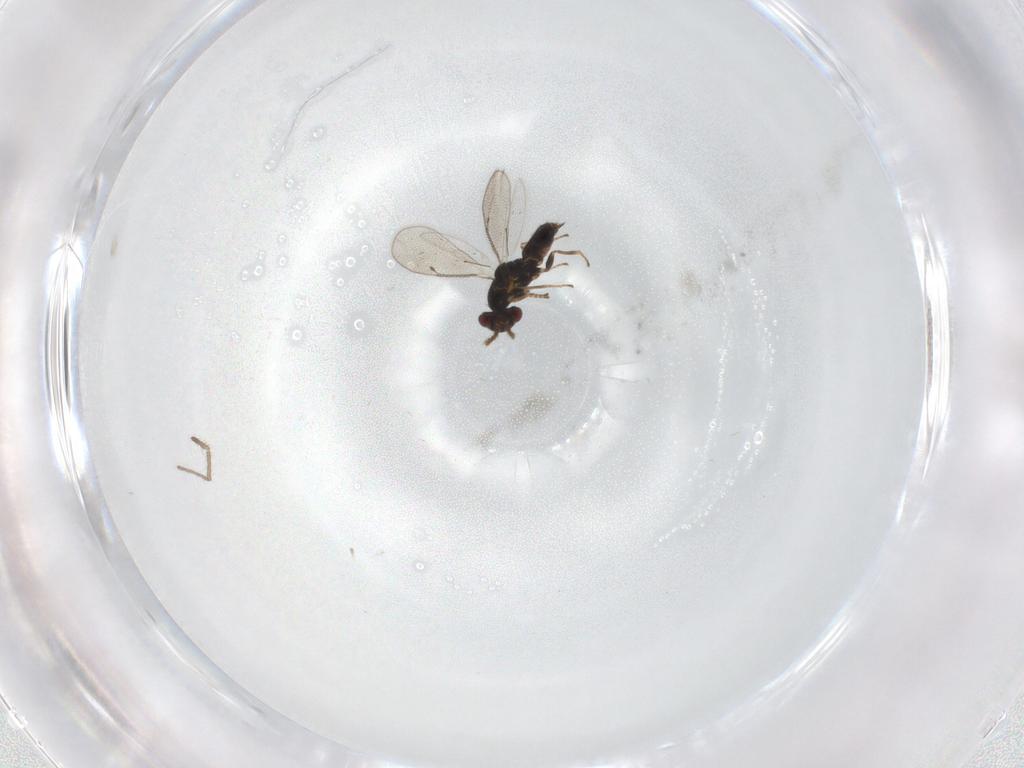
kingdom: Animalia
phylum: Arthropoda
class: Insecta
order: Hymenoptera
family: Eulophidae
